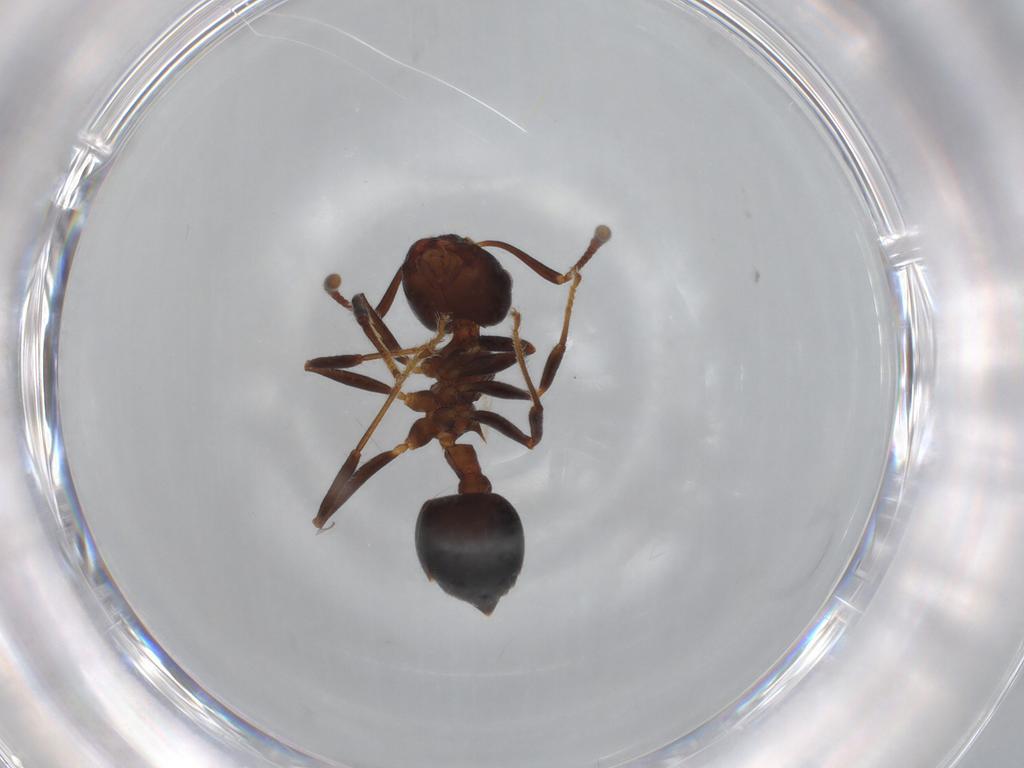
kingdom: Animalia
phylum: Arthropoda
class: Insecta
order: Hymenoptera
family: Formicidae
